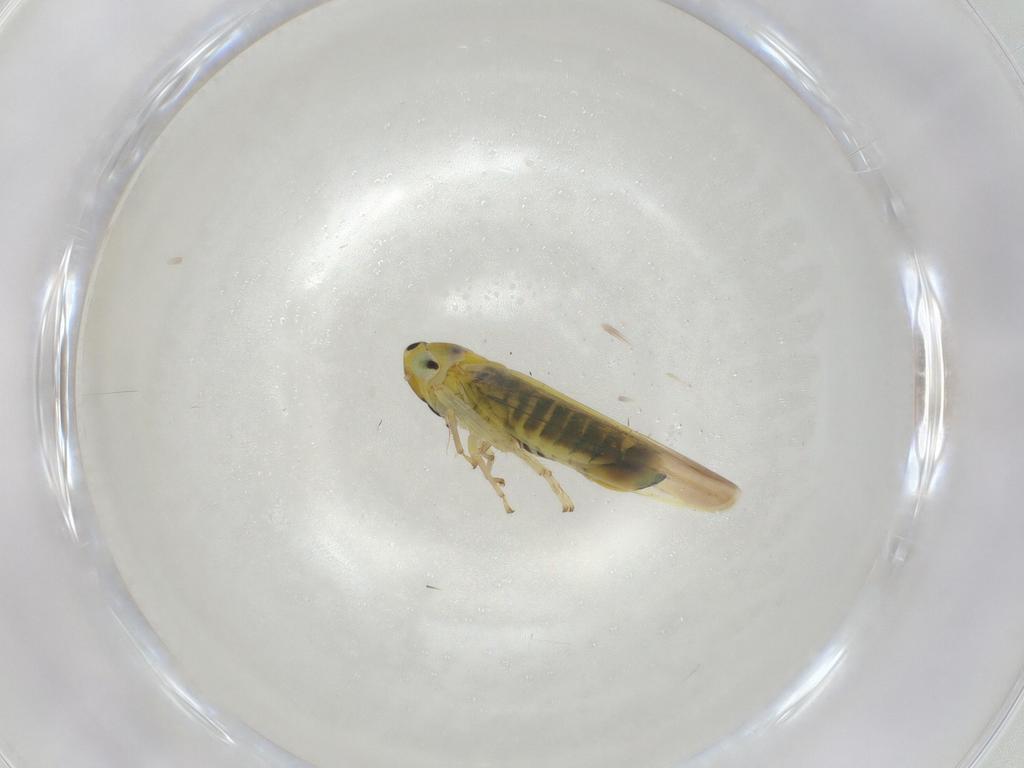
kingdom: Animalia
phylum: Arthropoda
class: Insecta
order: Hemiptera
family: Cicadellidae
